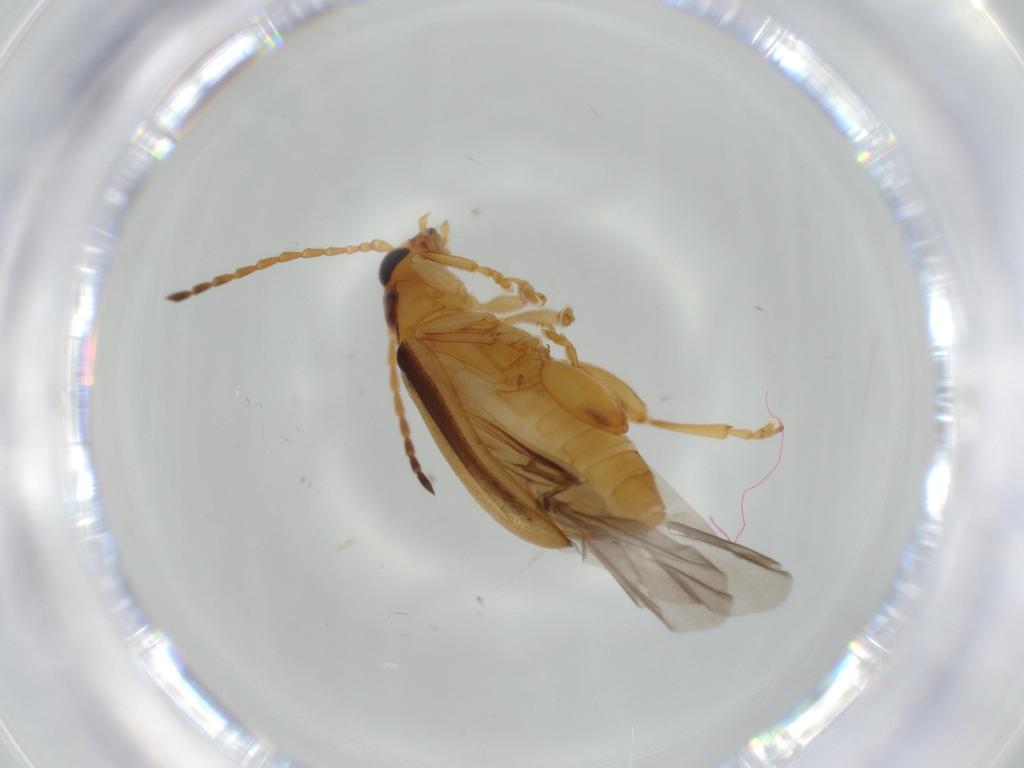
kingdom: Animalia
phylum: Arthropoda
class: Insecta
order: Coleoptera
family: Chrysomelidae
